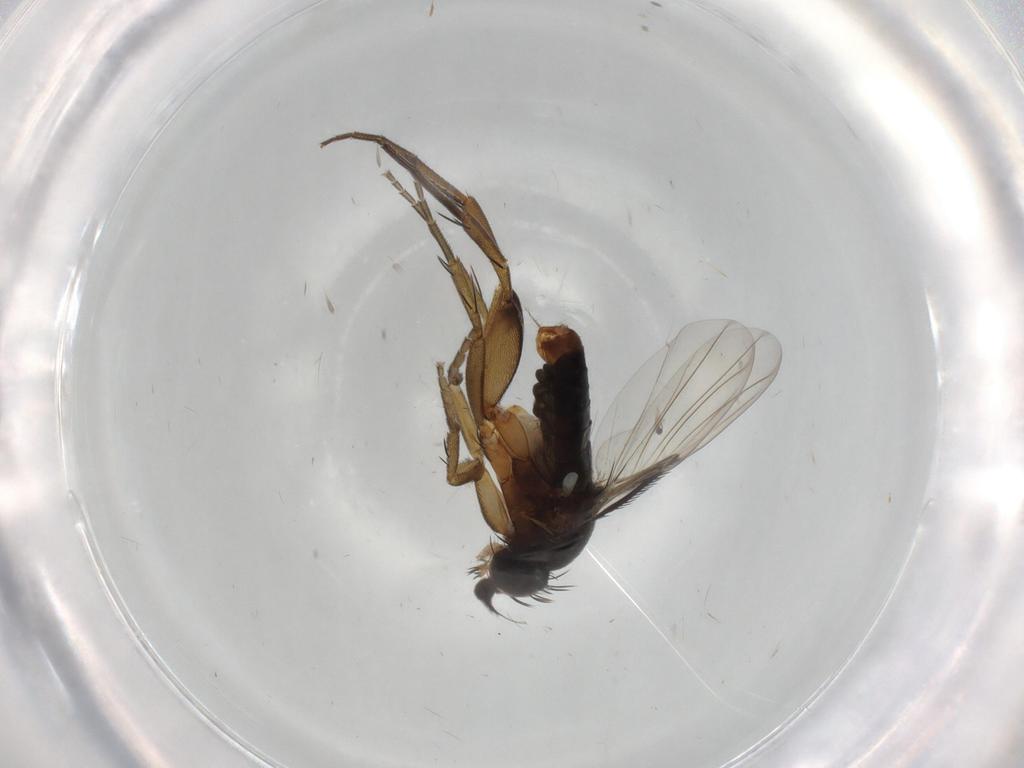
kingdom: Animalia
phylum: Arthropoda
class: Insecta
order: Diptera
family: Phoridae
